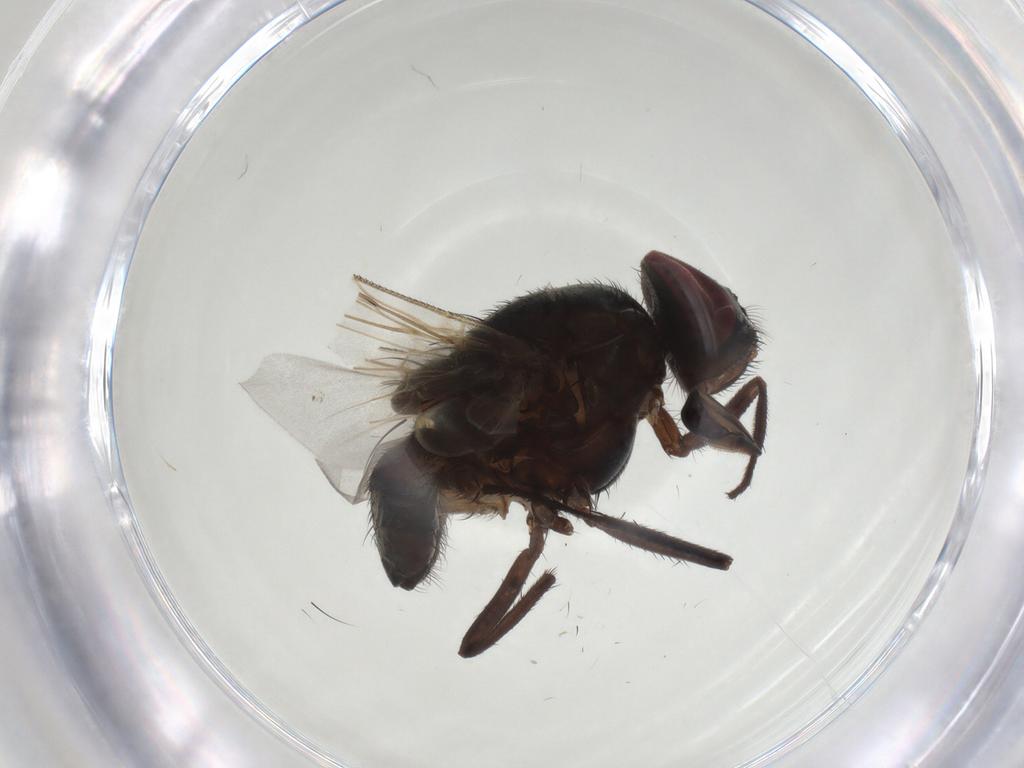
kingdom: Animalia
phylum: Arthropoda
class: Insecta
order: Diptera
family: Muscidae
